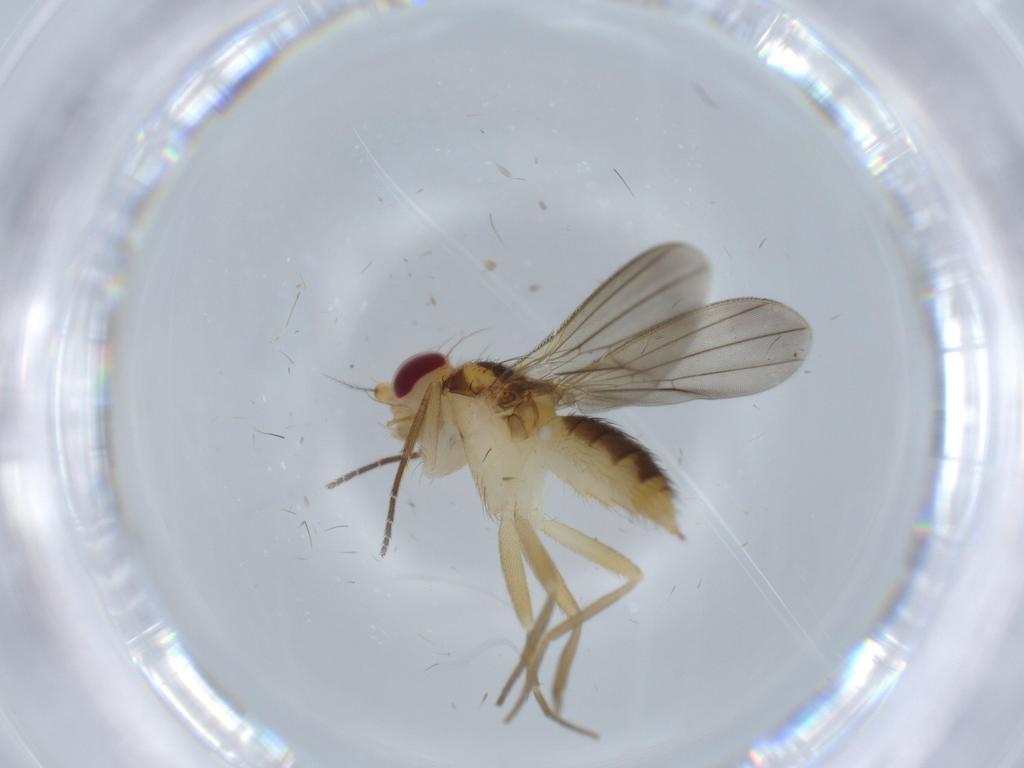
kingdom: Animalia
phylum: Arthropoda
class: Insecta
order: Diptera
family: Clusiidae
